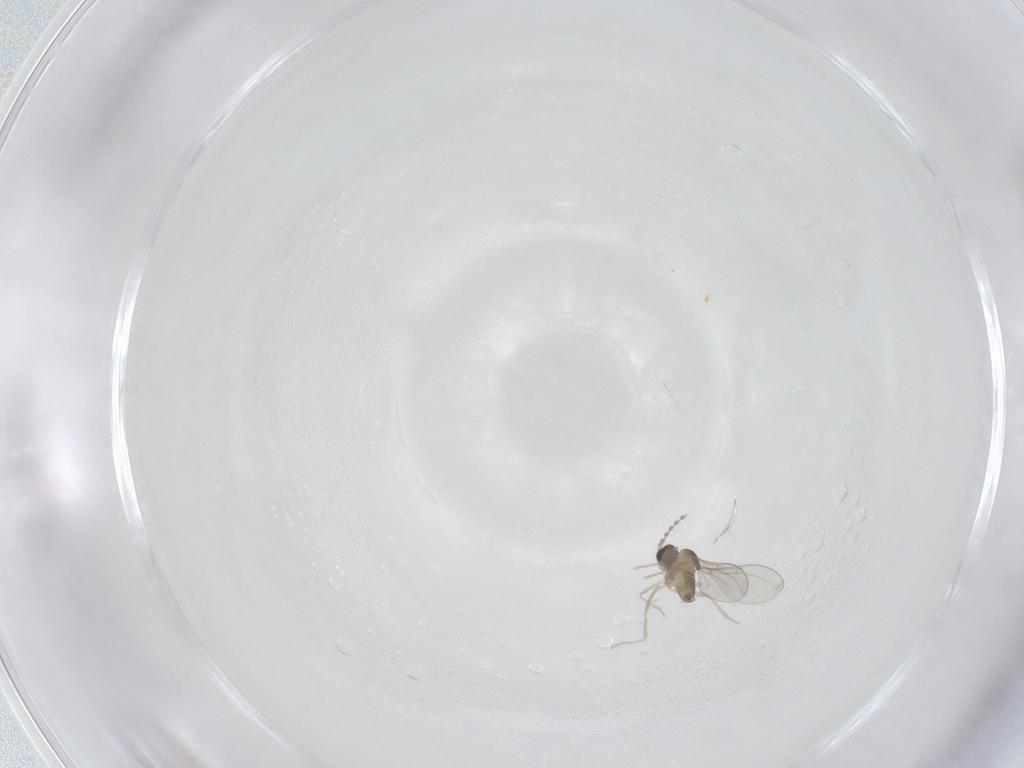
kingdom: Animalia
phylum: Arthropoda
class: Insecta
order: Diptera
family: Cecidomyiidae
